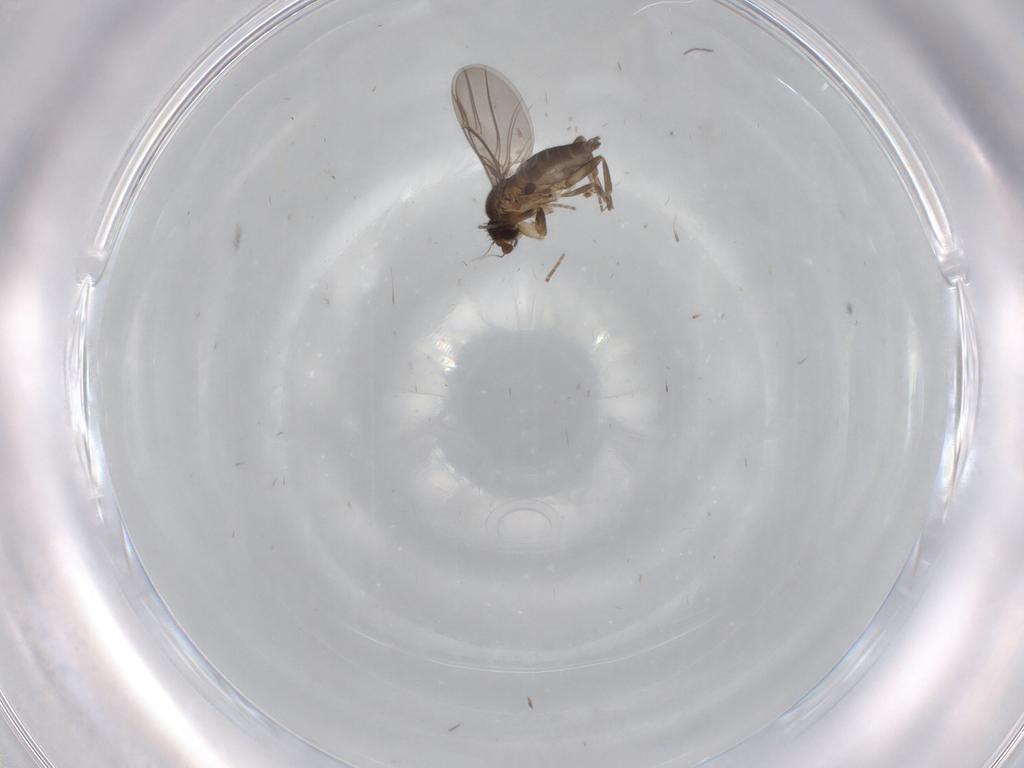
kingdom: Animalia
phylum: Arthropoda
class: Insecta
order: Diptera
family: Phoridae
